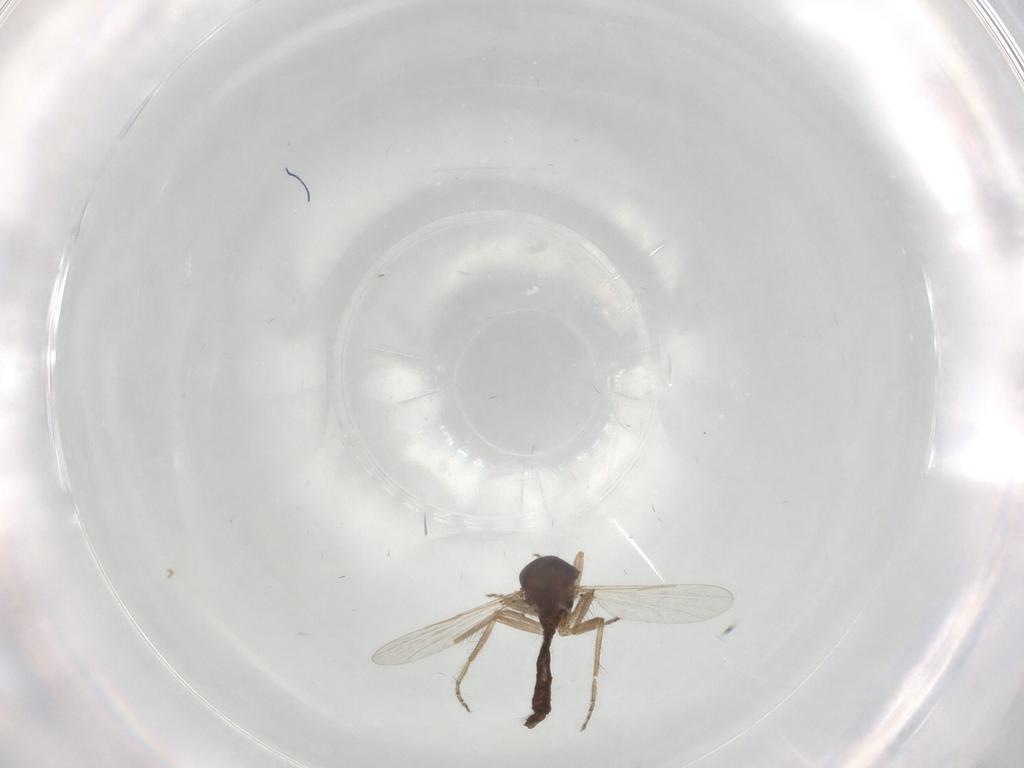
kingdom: Animalia
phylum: Arthropoda
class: Insecta
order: Diptera
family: Ceratopogonidae
